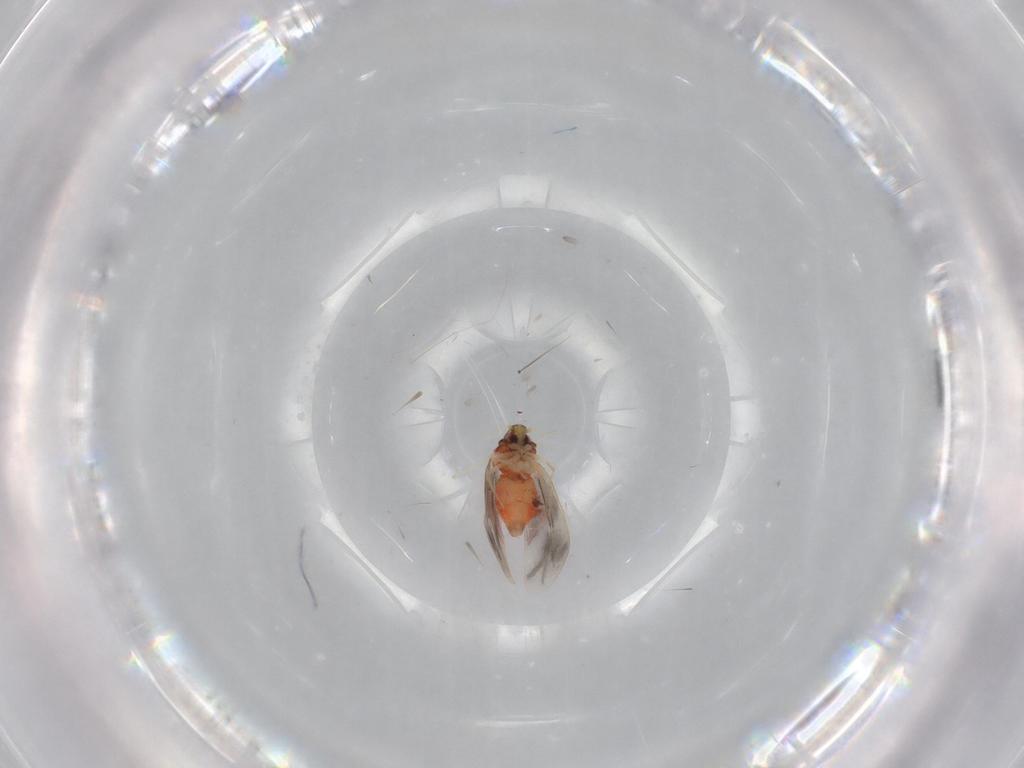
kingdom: Animalia
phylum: Arthropoda
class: Insecta
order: Hemiptera
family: Aleyrodidae
